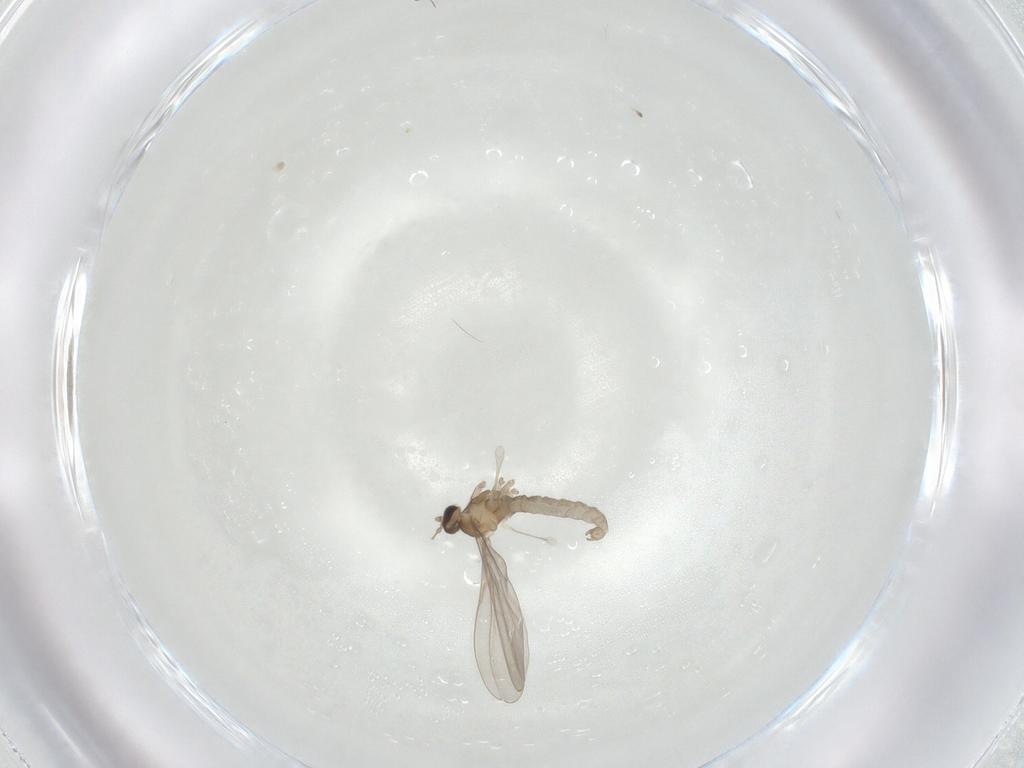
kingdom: Animalia
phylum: Arthropoda
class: Insecta
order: Diptera
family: Cecidomyiidae
